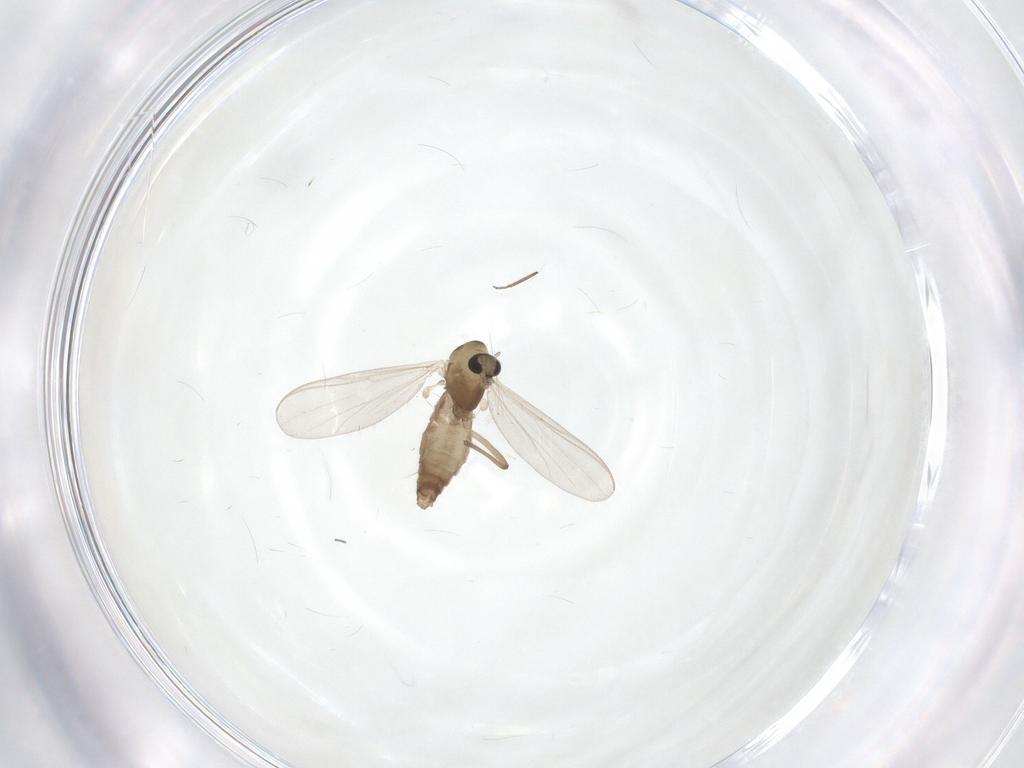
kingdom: Animalia
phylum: Arthropoda
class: Insecta
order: Diptera
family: Chironomidae
